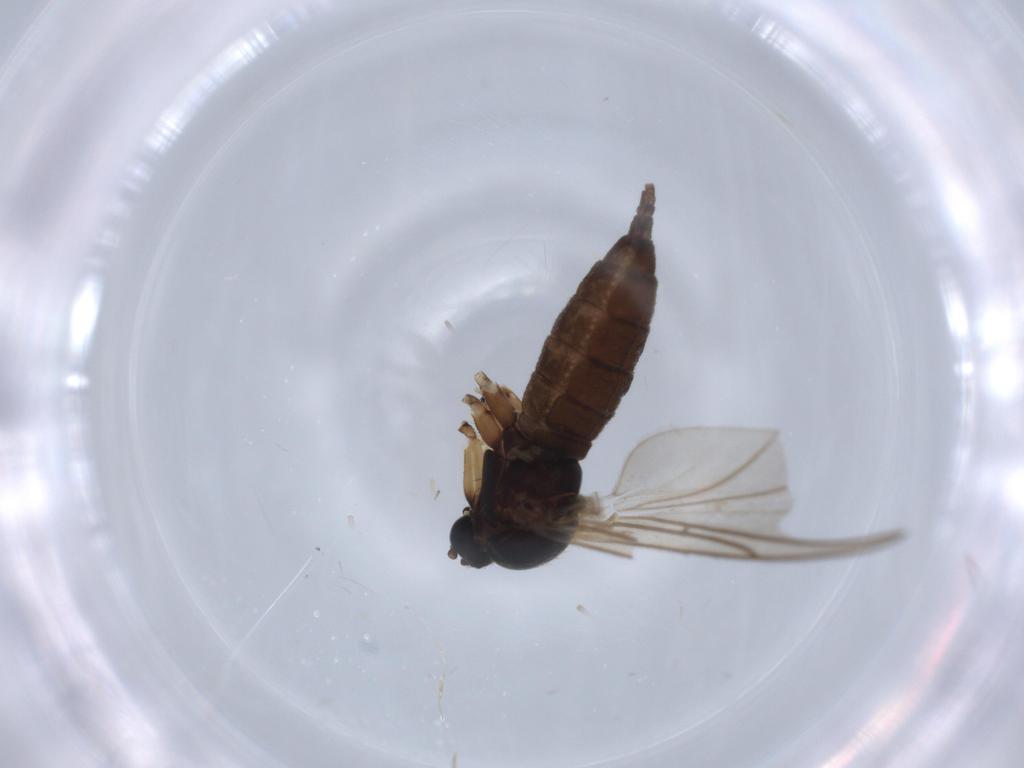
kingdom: Animalia
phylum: Arthropoda
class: Insecta
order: Diptera
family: Sciaridae
